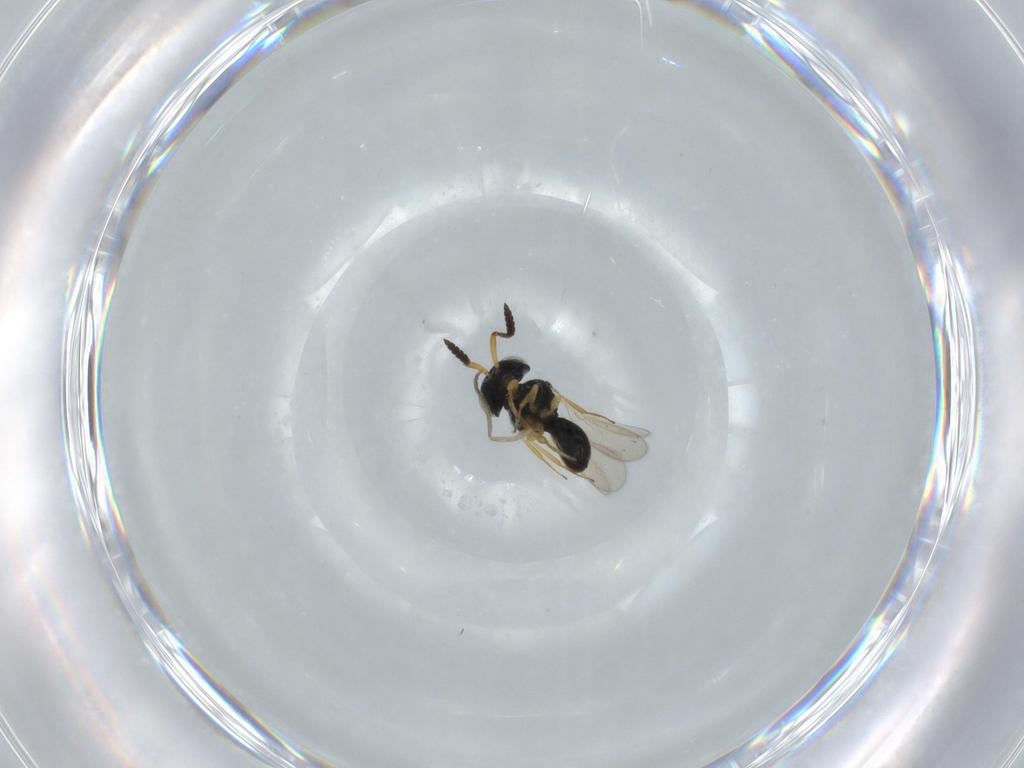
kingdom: Animalia
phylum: Arthropoda
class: Insecta
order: Hymenoptera
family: Scelionidae
